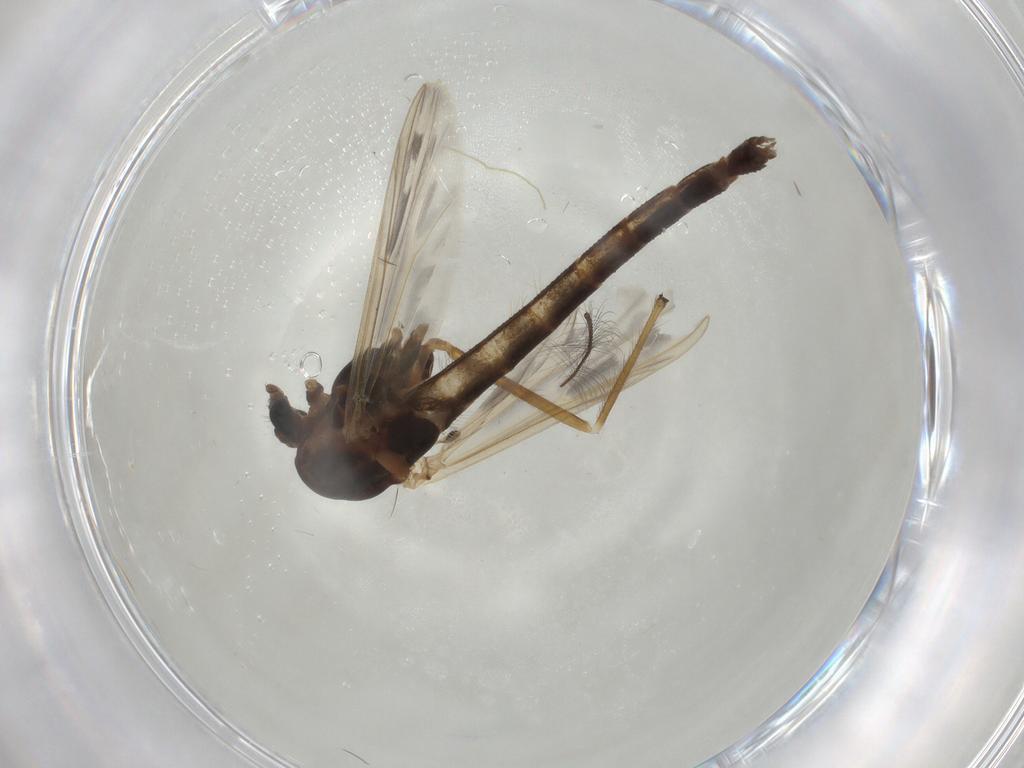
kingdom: Animalia
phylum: Arthropoda
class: Insecta
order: Diptera
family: Chironomidae
